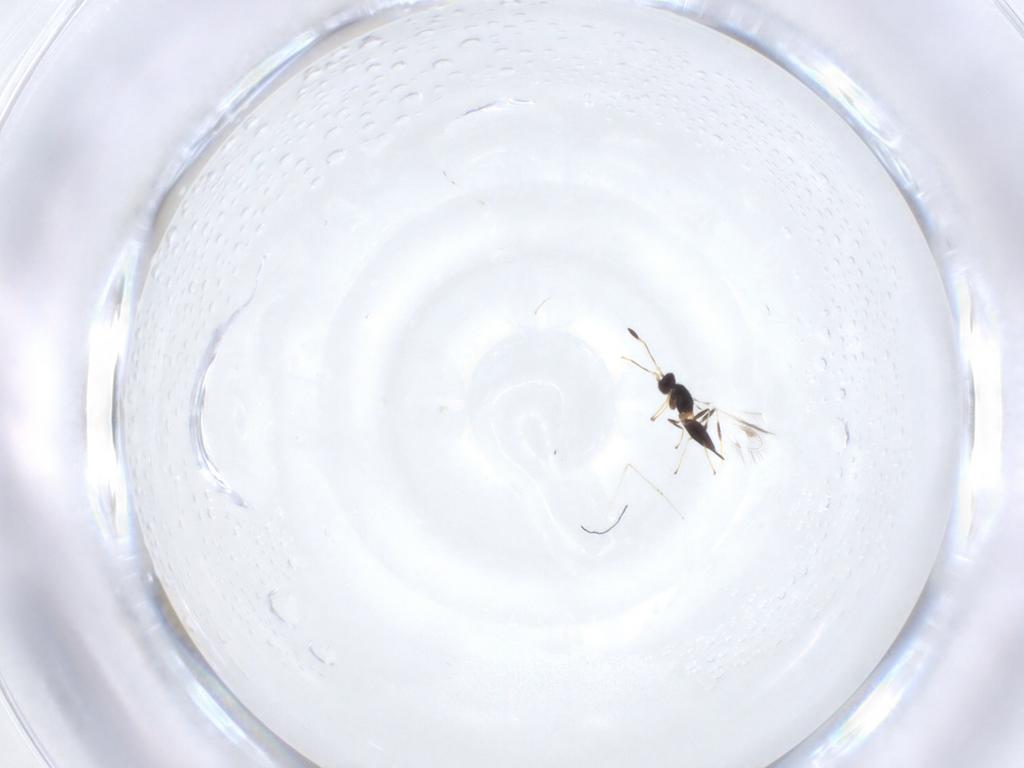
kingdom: Animalia
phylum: Arthropoda
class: Insecta
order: Hymenoptera
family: Mymaridae
